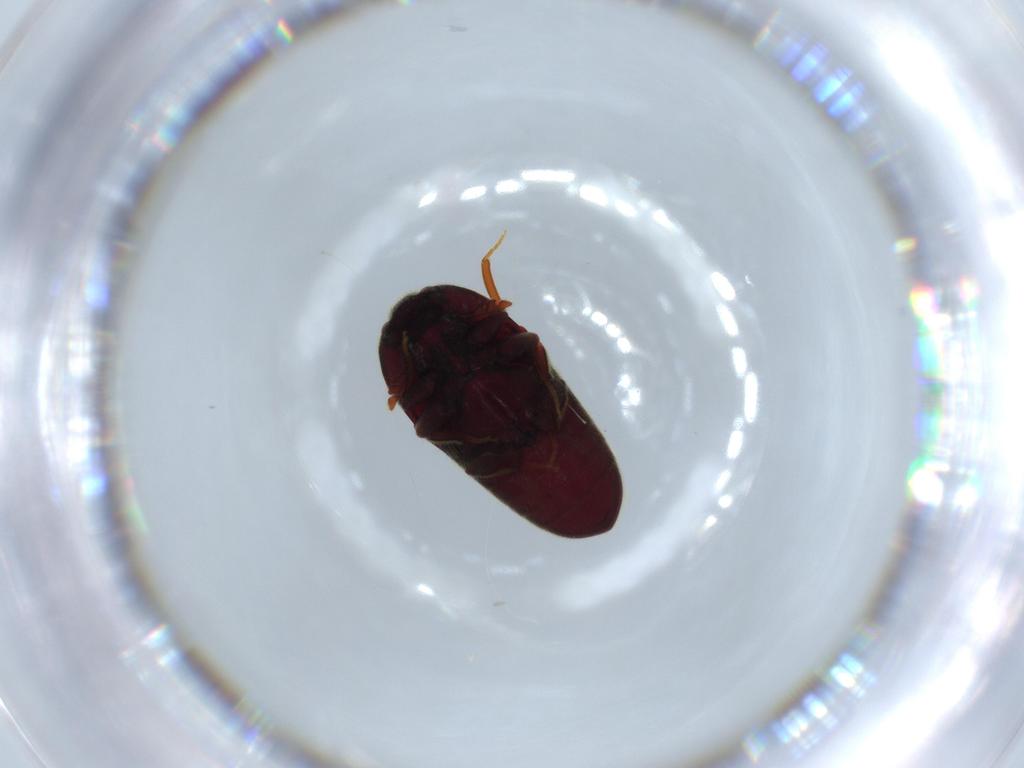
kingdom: Animalia
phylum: Arthropoda
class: Insecta
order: Coleoptera
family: Throscidae
